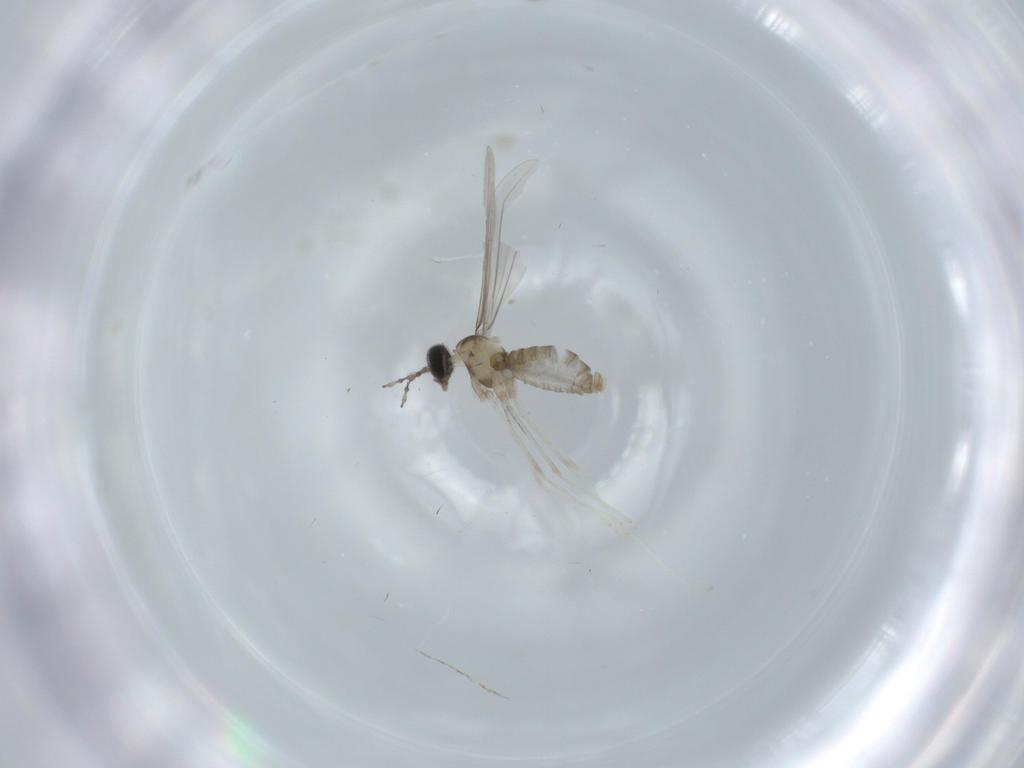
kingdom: Animalia
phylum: Arthropoda
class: Insecta
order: Diptera
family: Cecidomyiidae
